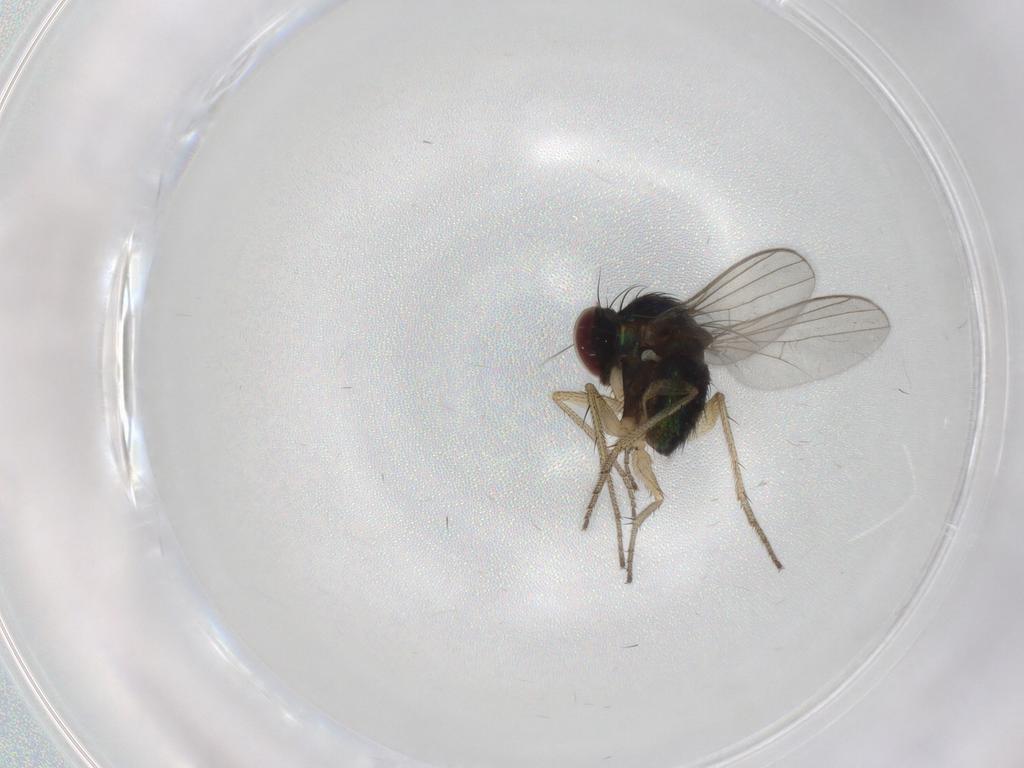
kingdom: Animalia
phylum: Arthropoda
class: Insecta
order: Diptera
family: Dolichopodidae
